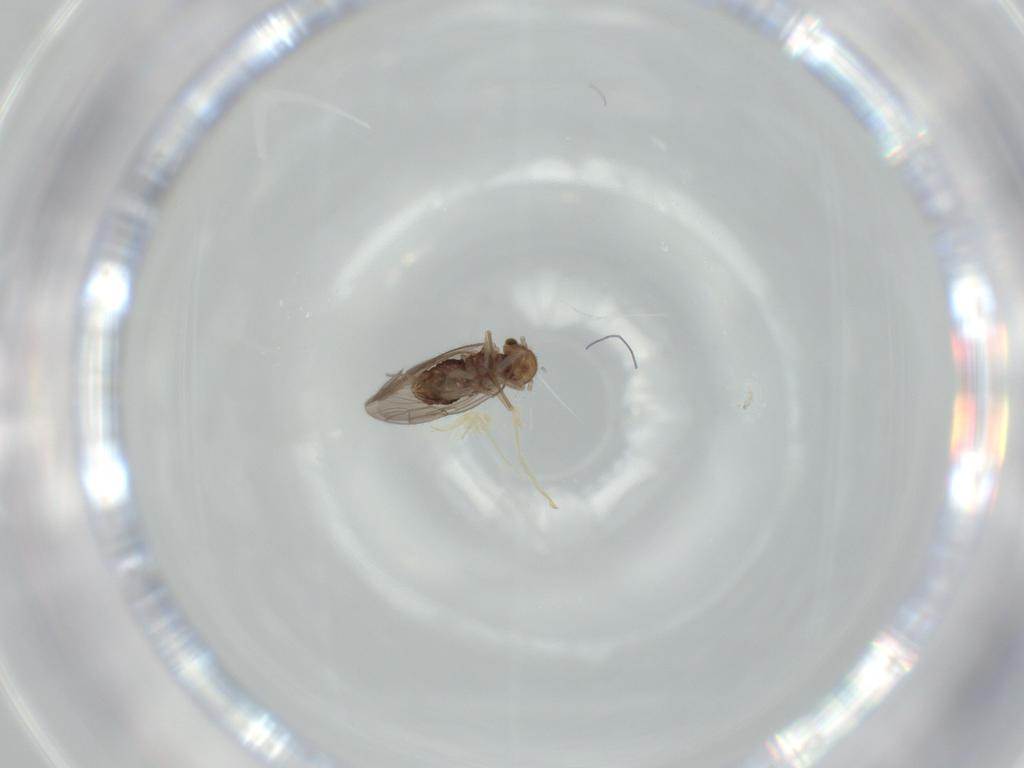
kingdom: Animalia
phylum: Arthropoda
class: Insecta
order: Psocodea
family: Ectopsocidae
